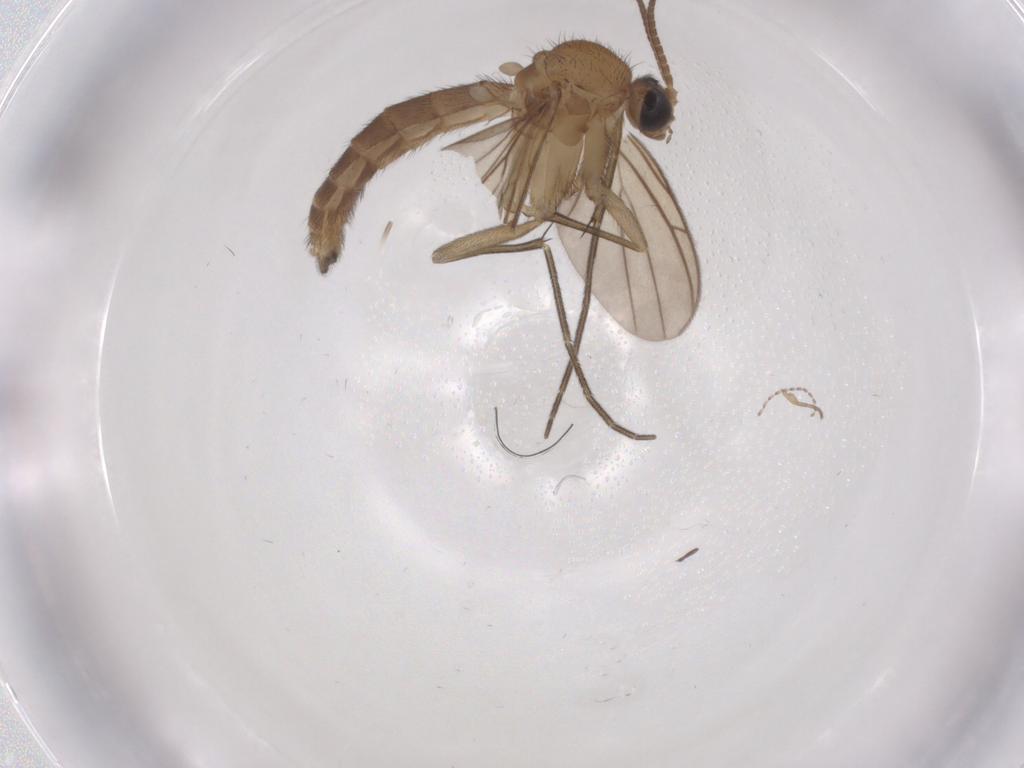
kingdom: Animalia
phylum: Arthropoda
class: Insecta
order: Diptera
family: Keroplatidae
